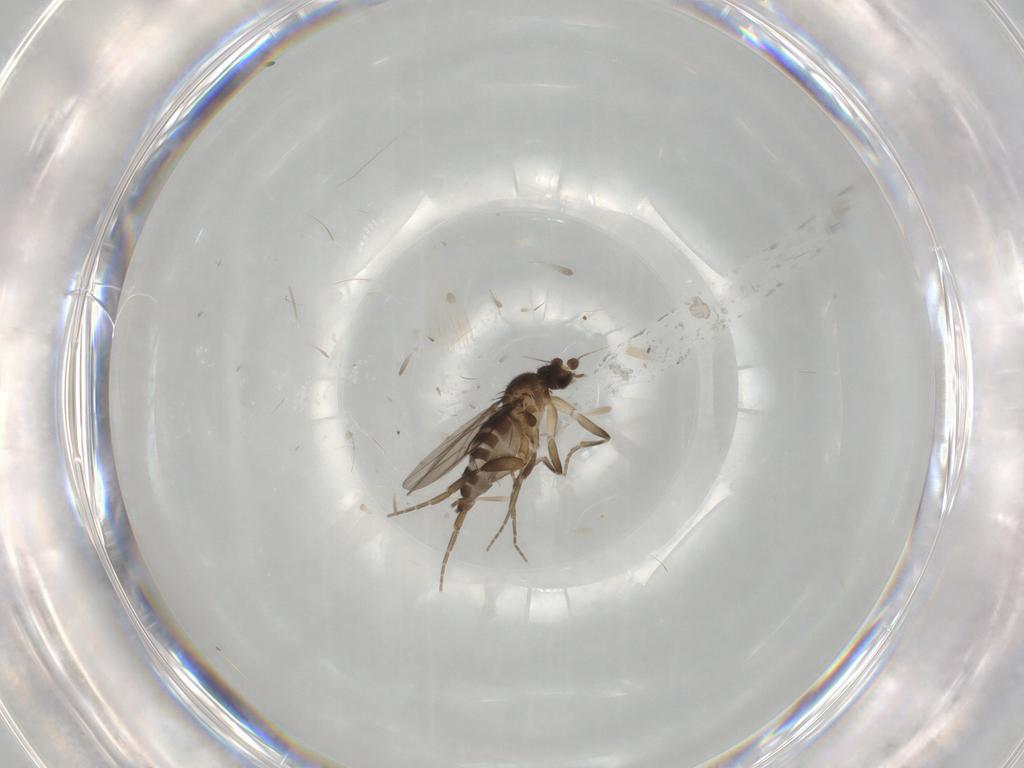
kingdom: Animalia
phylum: Arthropoda
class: Insecta
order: Diptera
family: Phoridae
